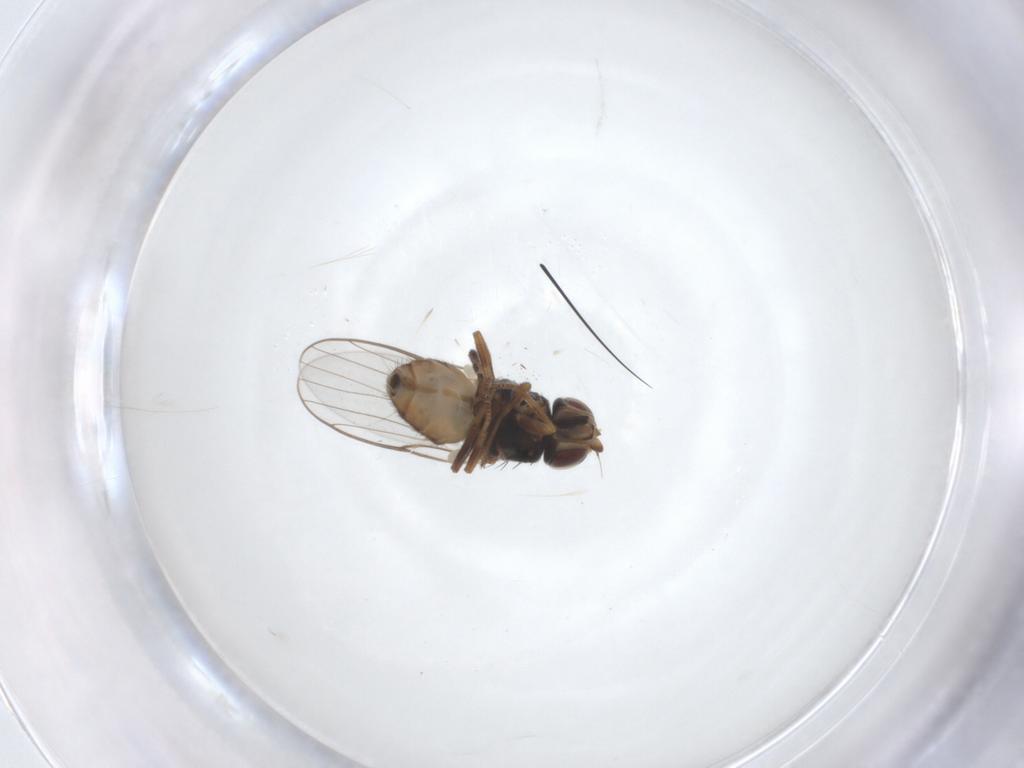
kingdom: Animalia
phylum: Arthropoda
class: Insecta
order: Diptera
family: Chloropidae
